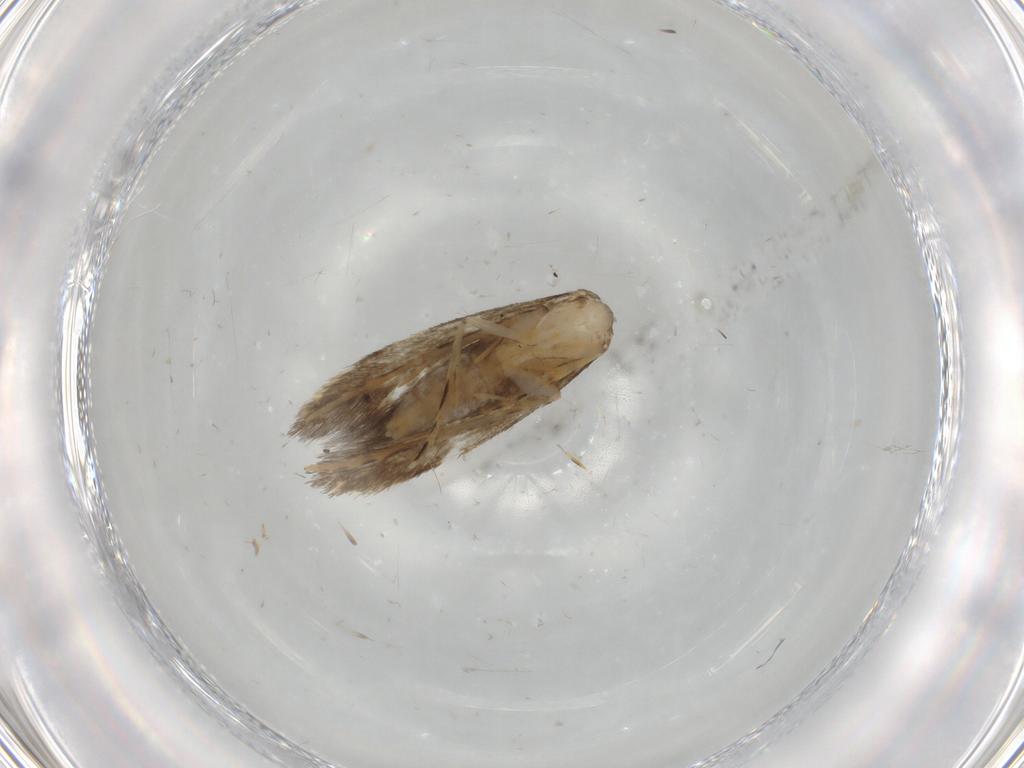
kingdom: Animalia
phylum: Arthropoda
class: Insecta
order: Lepidoptera
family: Tineidae
